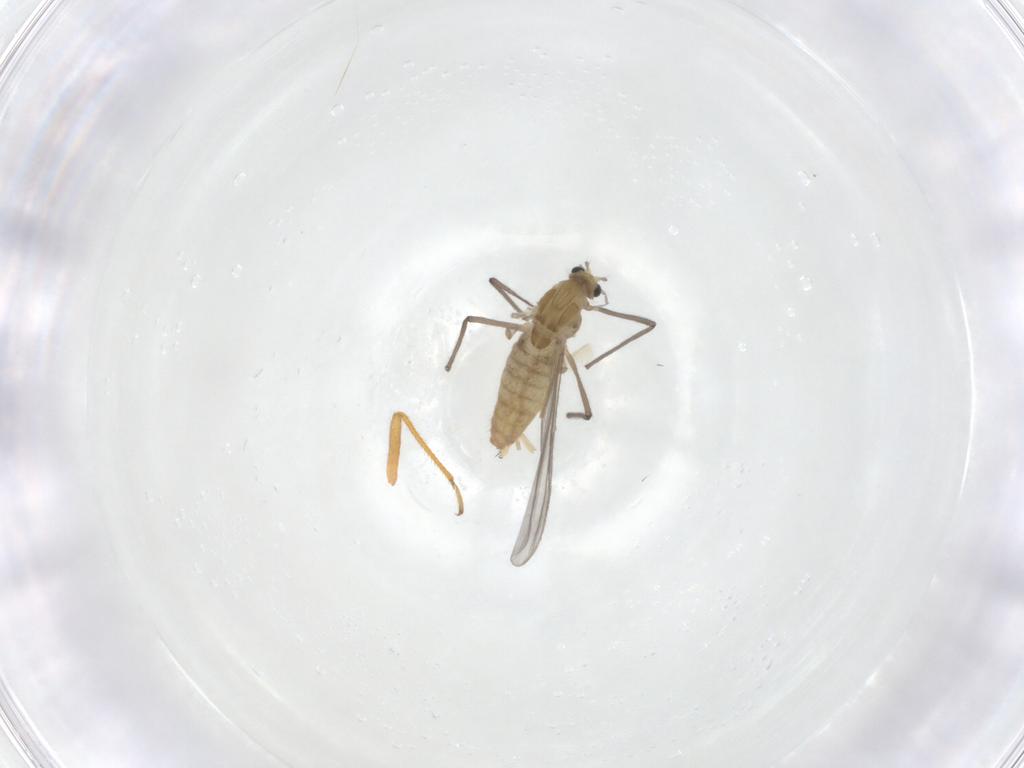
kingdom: Animalia
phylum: Arthropoda
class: Insecta
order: Diptera
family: Chironomidae
